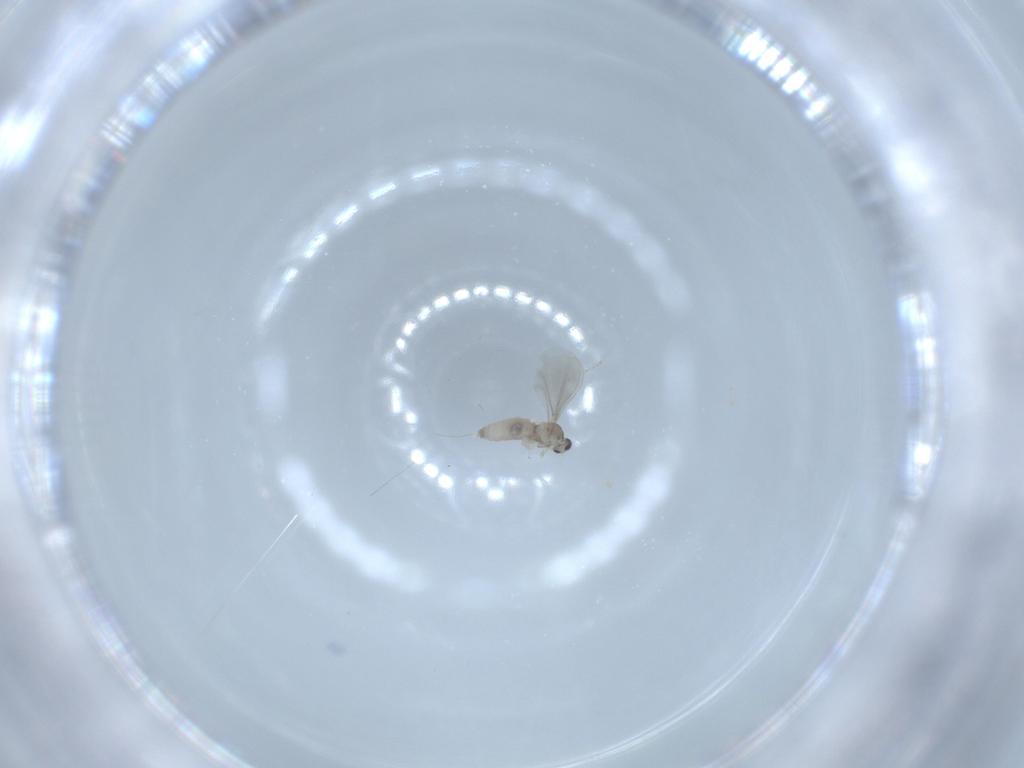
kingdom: Animalia
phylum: Arthropoda
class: Insecta
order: Diptera
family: Cecidomyiidae
